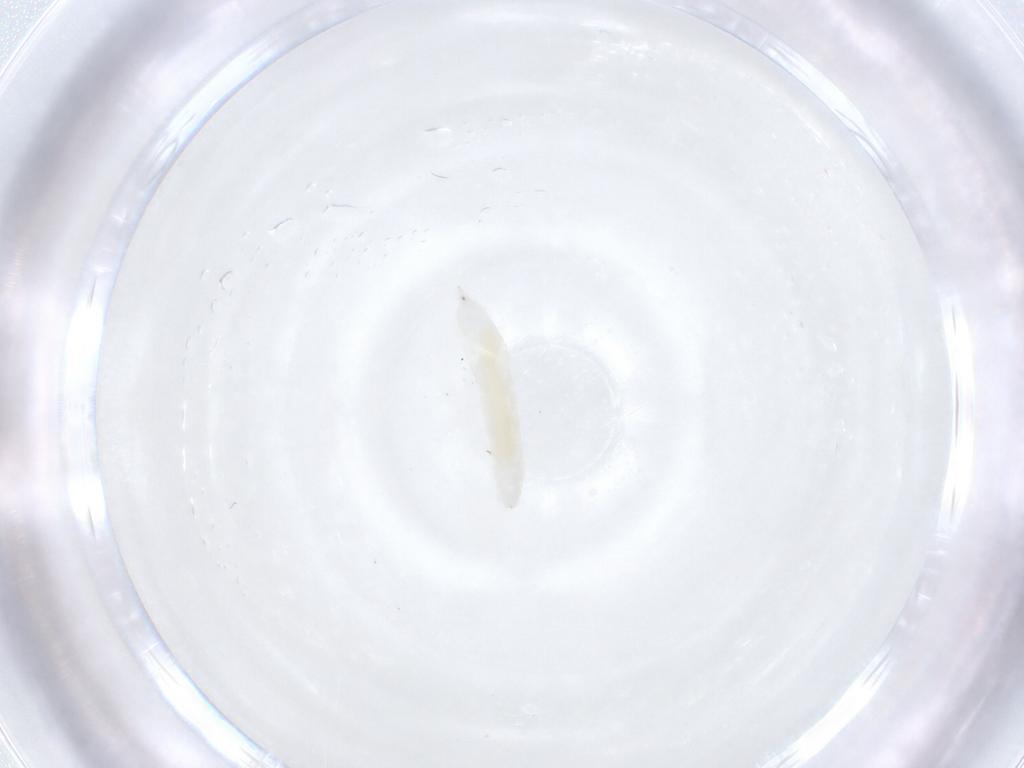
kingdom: Animalia
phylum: Arthropoda
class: Insecta
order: Diptera
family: Cecidomyiidae
